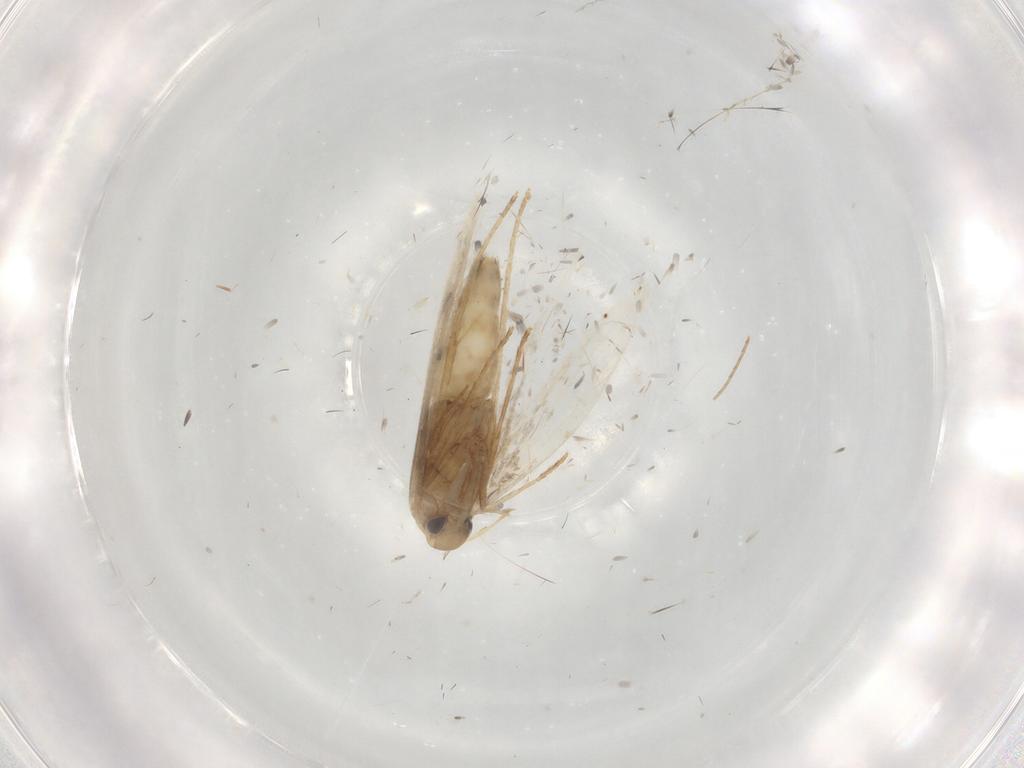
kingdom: Animalia
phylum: Arthropoda
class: Insecta
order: Lepidoptera
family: Gracillariidae
